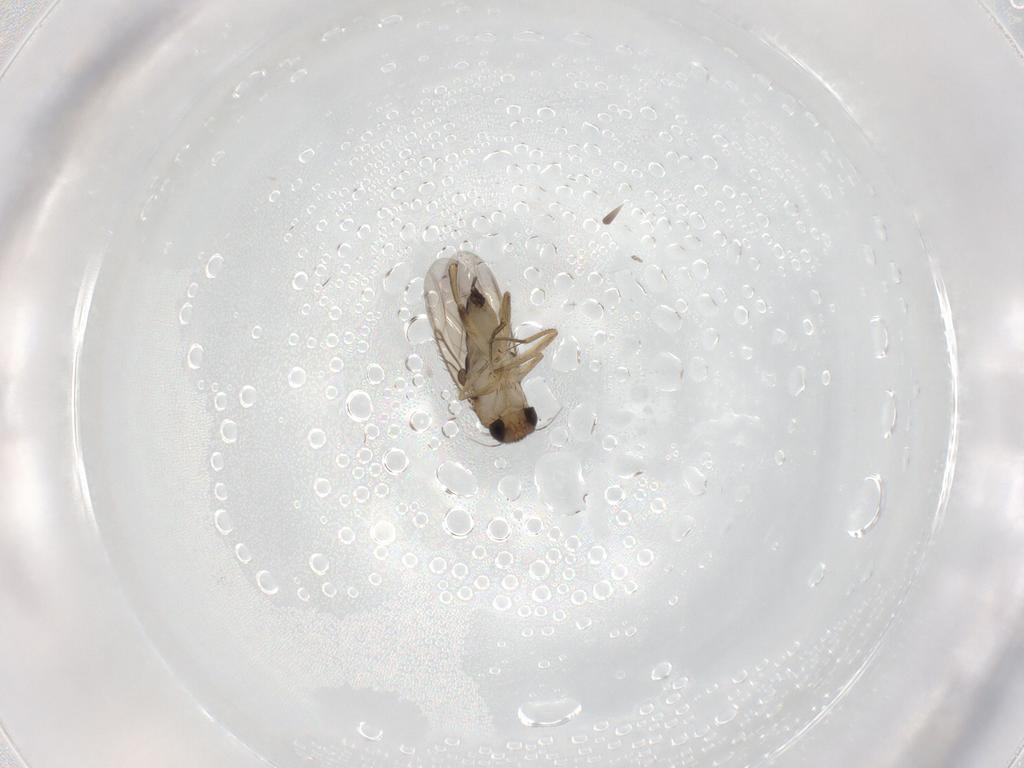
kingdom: Animalia
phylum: Arthropoda
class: Insecta
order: Diptera
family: Phoridae
